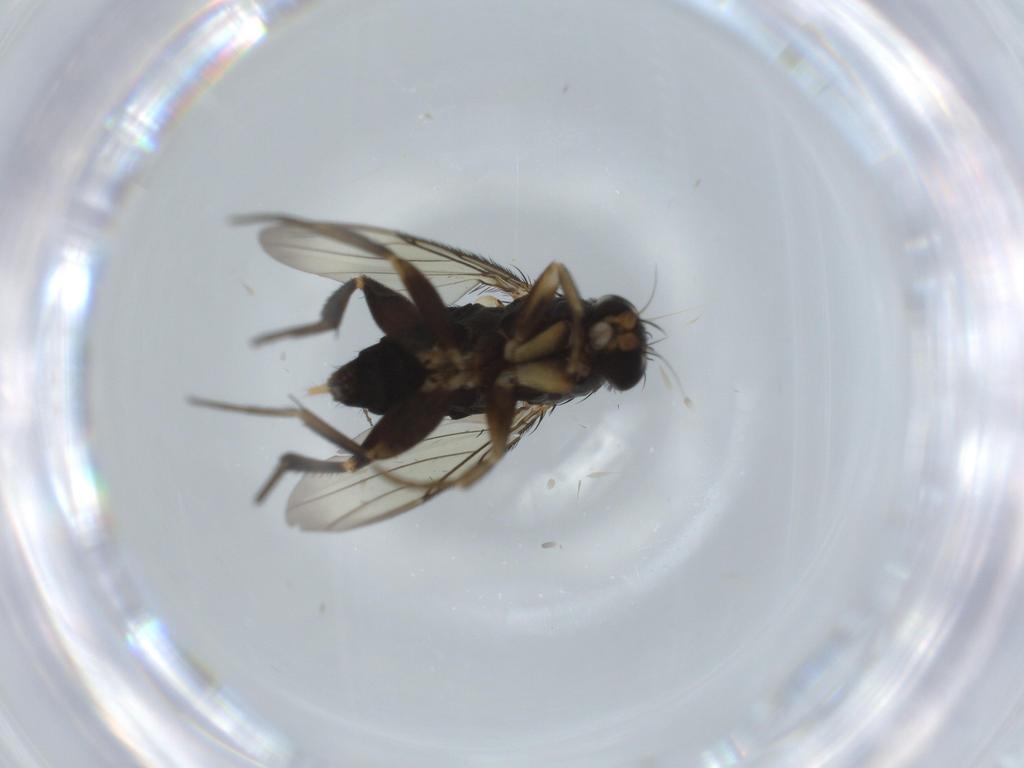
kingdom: Animalia
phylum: Arthropoda
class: Insecta
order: Diptera
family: Phoridae
